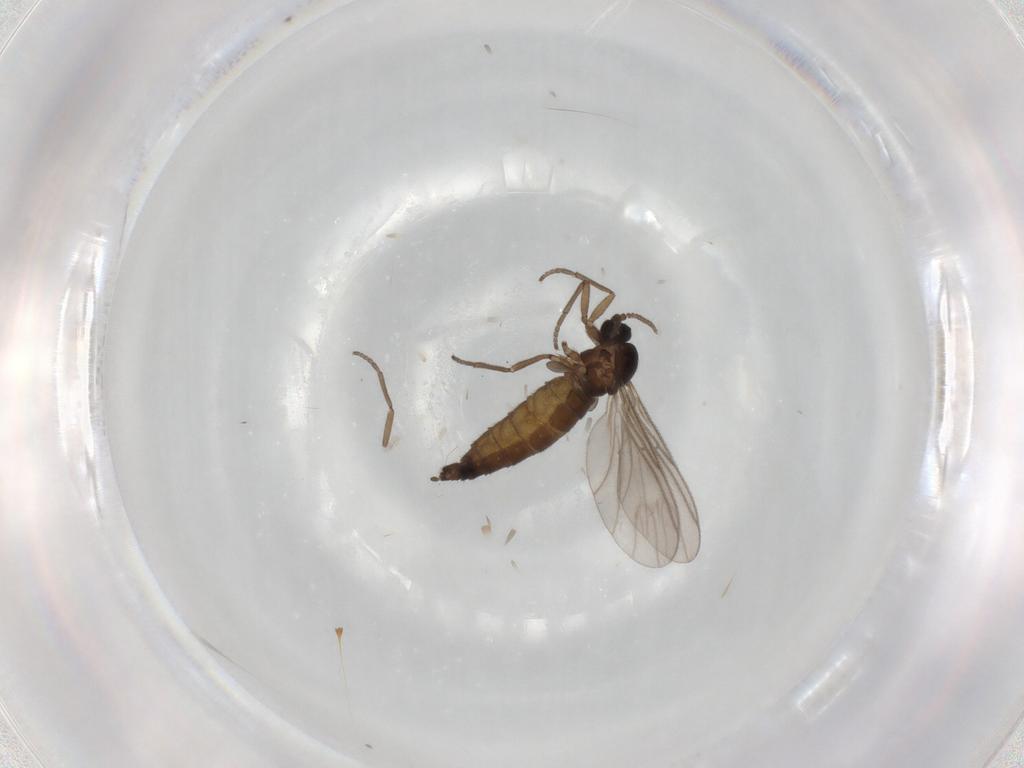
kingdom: Animalia
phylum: Arthropoda
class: Insecta
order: Diptera
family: Sciaridae
